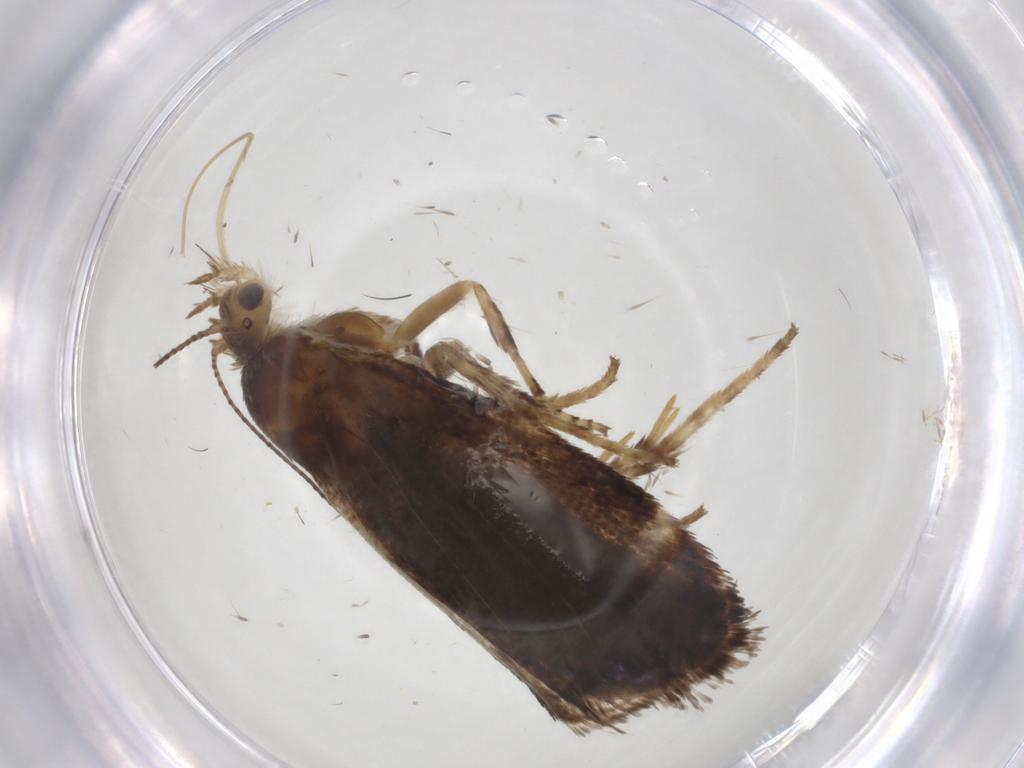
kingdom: Animalia
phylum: Arthropoda
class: Insecta
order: Lepidoptera
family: Choreutidae
